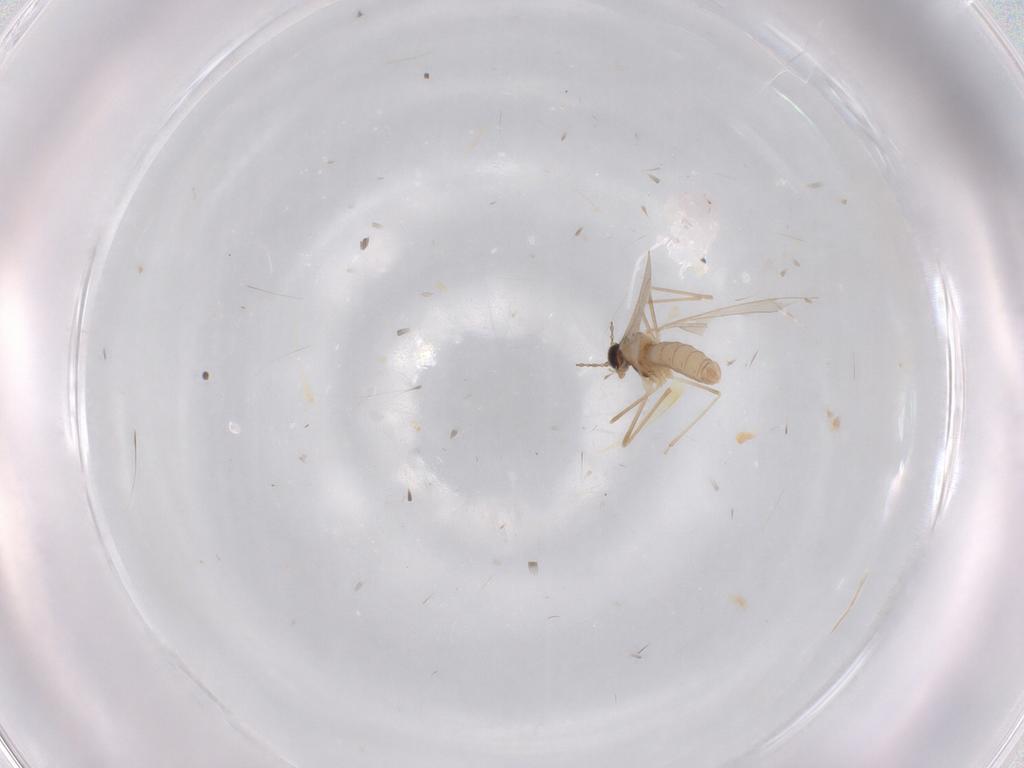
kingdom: Animalia
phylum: Arthropoda
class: Insecta
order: Diptera
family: Cecidomyiidae
